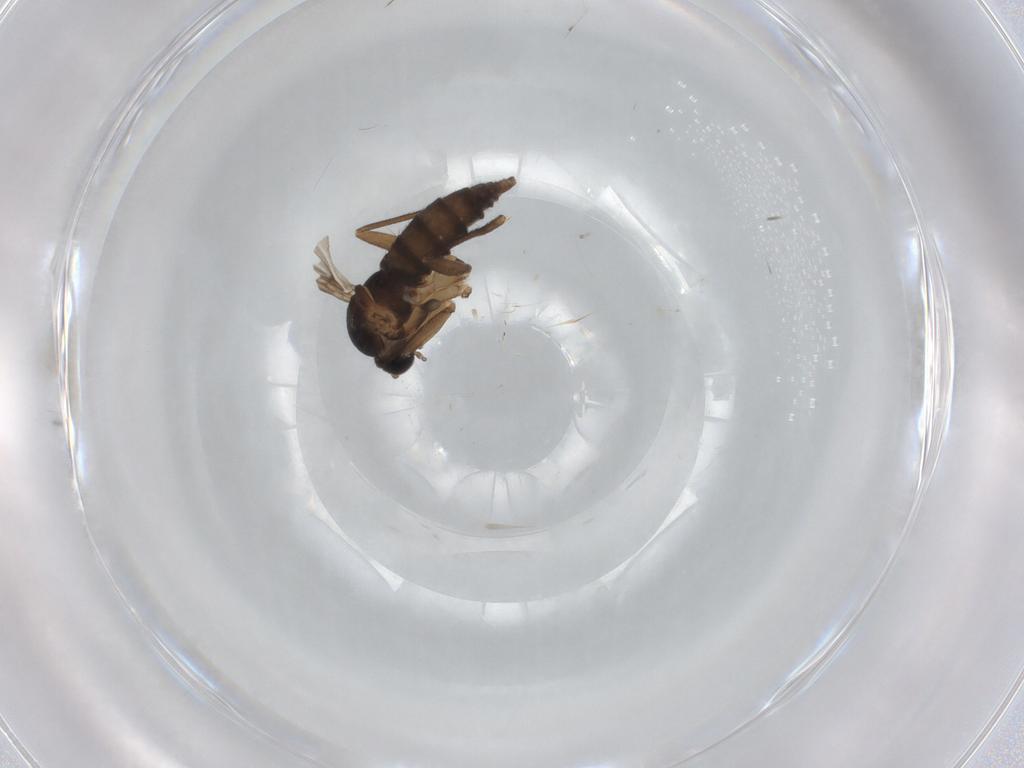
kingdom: Animalia
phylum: Arthropoda
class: Insecta
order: Diptera
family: Sciaridae
